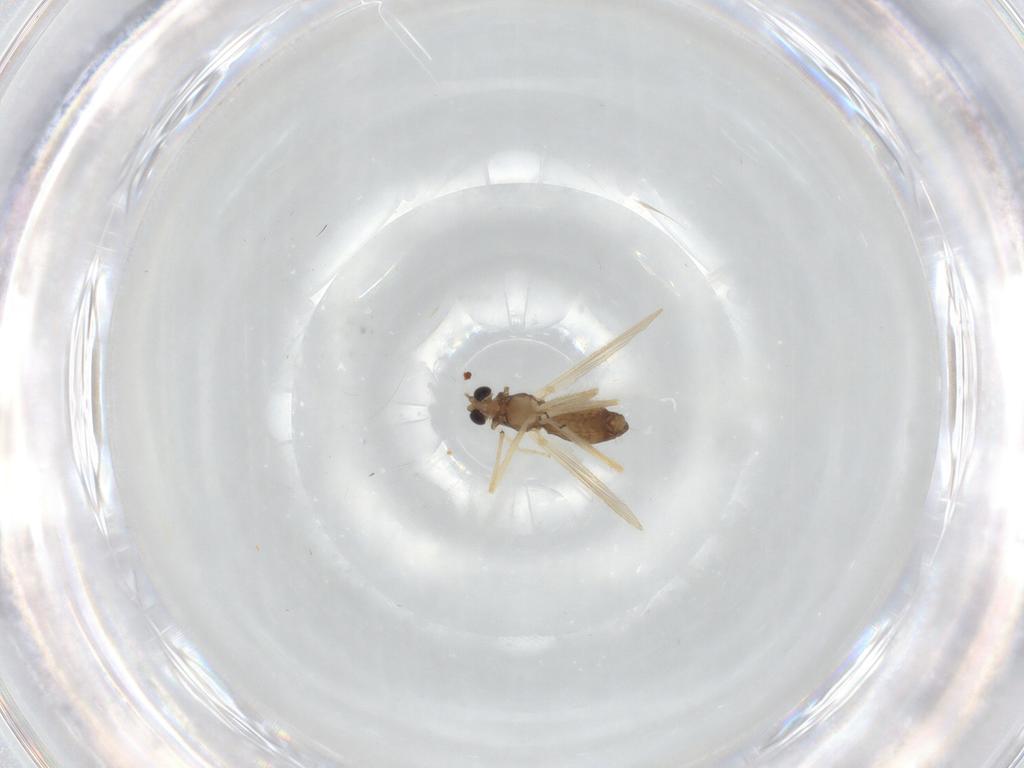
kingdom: Animalia
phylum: Arthropoda
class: Insecta
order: Diptera
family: Chironomidae
